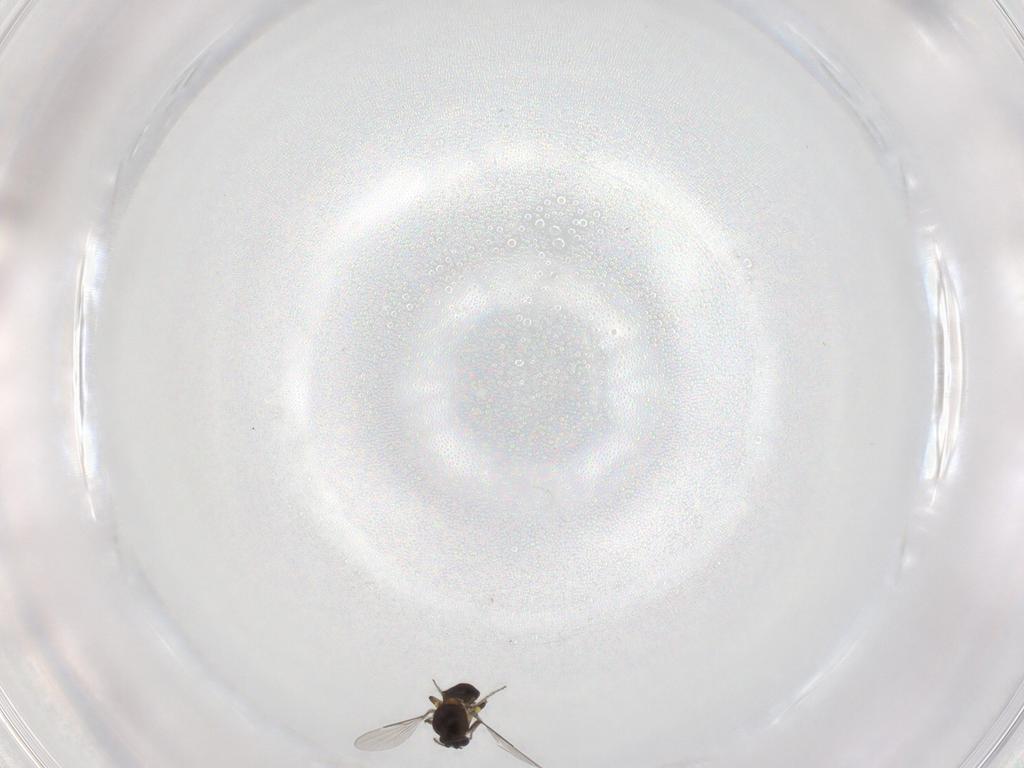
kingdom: Animalia
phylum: Arthropoda
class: Insecta
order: Diptera
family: Ceratopogonidae
